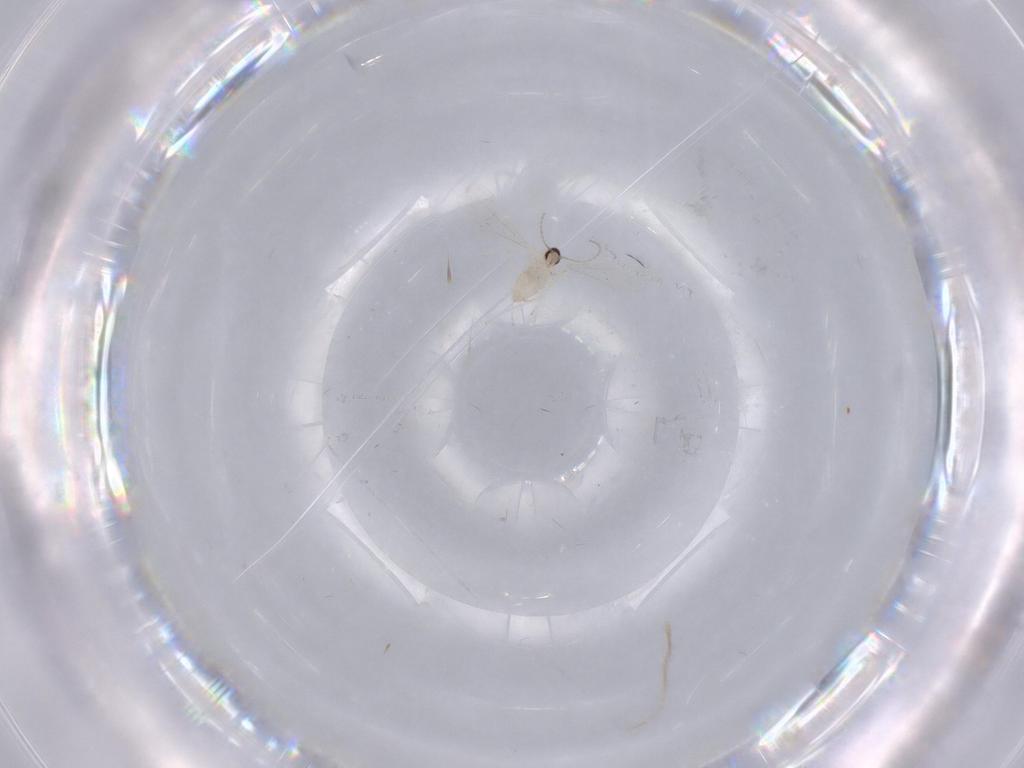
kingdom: Animalia
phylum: Arthropoda
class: Insecta
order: Diptera
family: Cecidomyiidae
